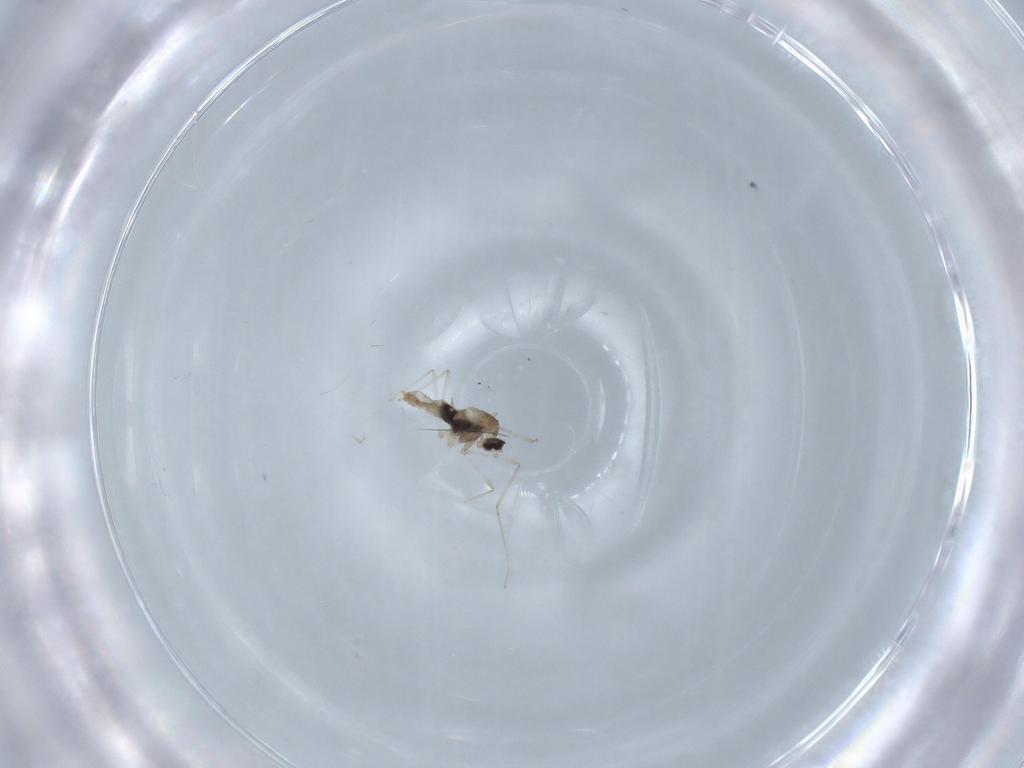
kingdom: Animalia
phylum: Arthropoda
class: Insecta
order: Diptera
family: Cecidomyiidae
